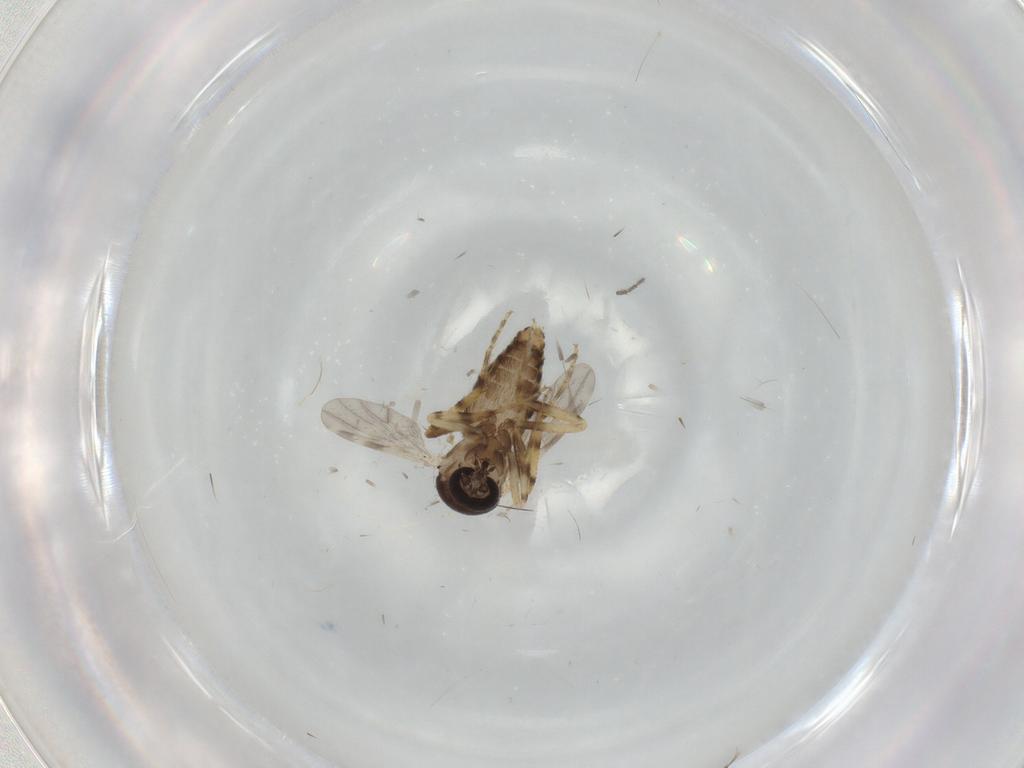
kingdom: Animalia
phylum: Arthropoda
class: Insecta
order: Diptera
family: Ceratopogonidae
